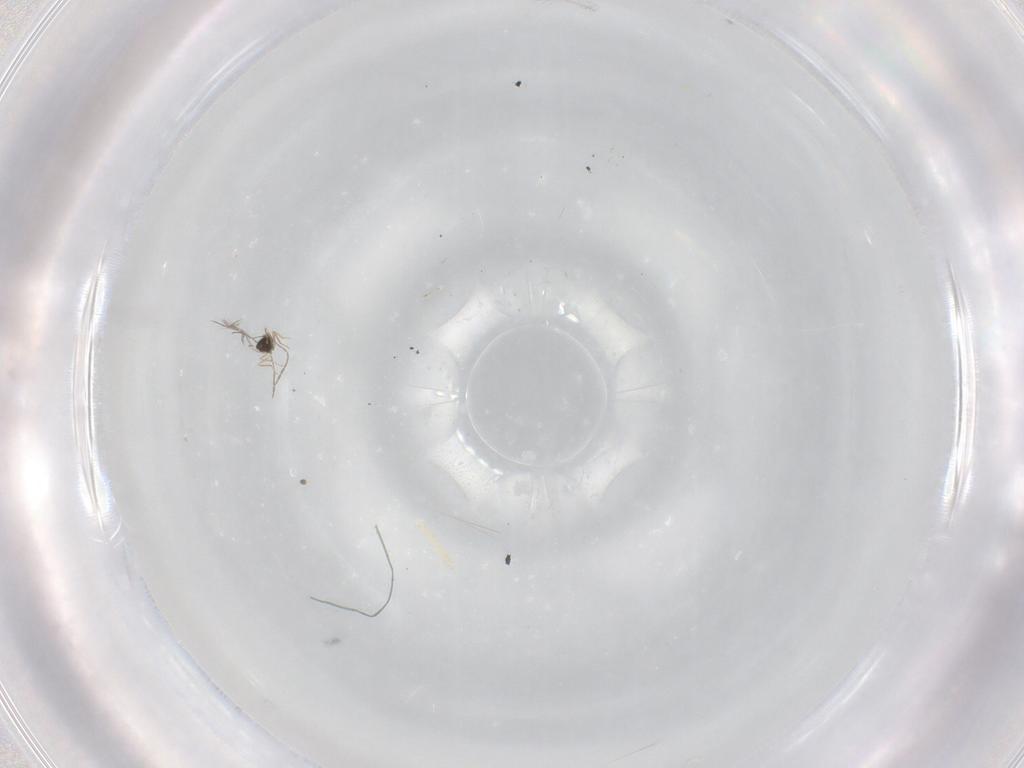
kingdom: Animalia
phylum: Arthropoda
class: Insecta
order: Hymenoptera
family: Mymaridae
